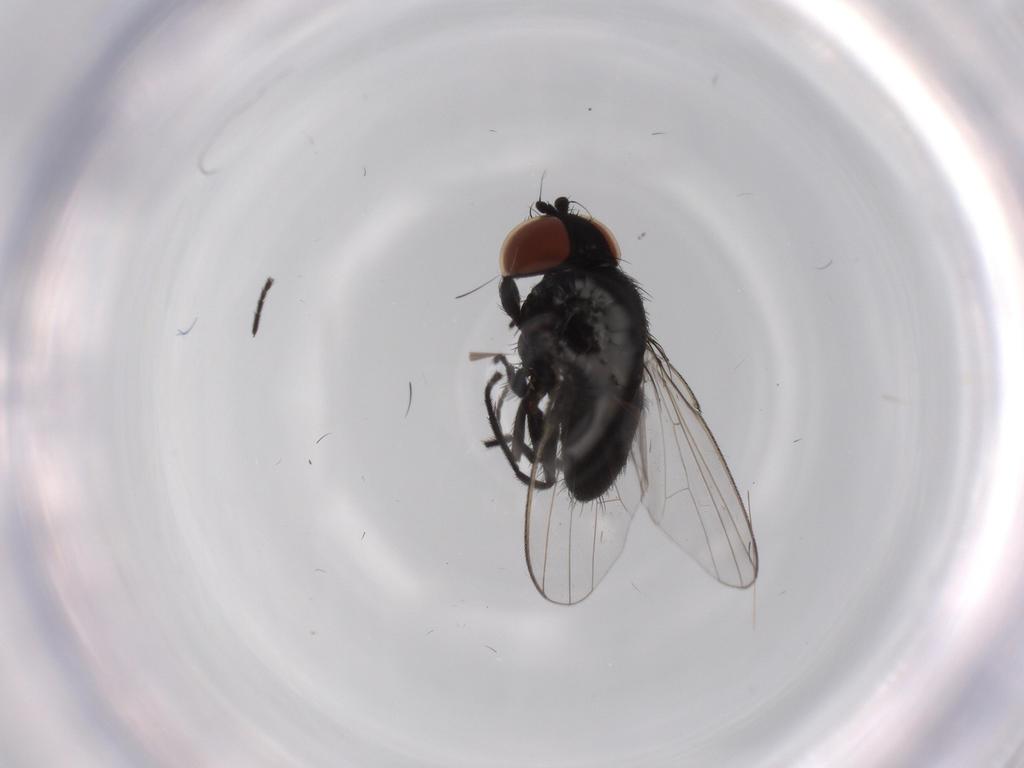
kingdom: Animalia
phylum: Arthropoda
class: Insecta
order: Diptera
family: Milichiidae
